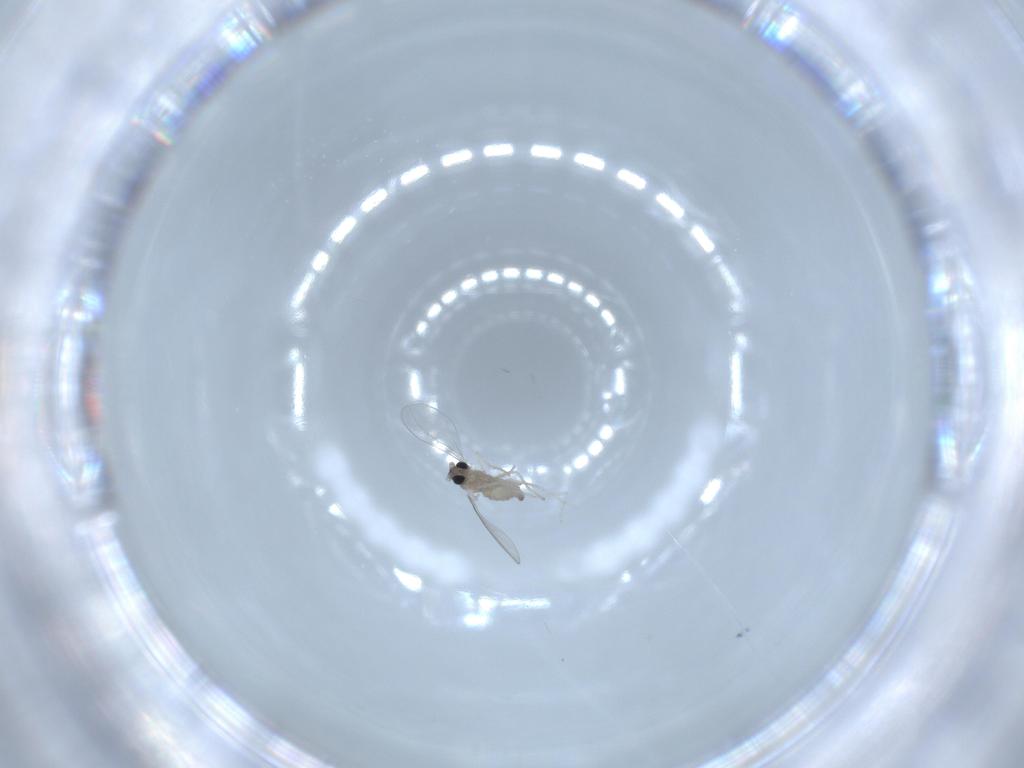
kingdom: Animalia
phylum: Arthropoda
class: Insecta
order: Diptera
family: Cecidomyiidae
